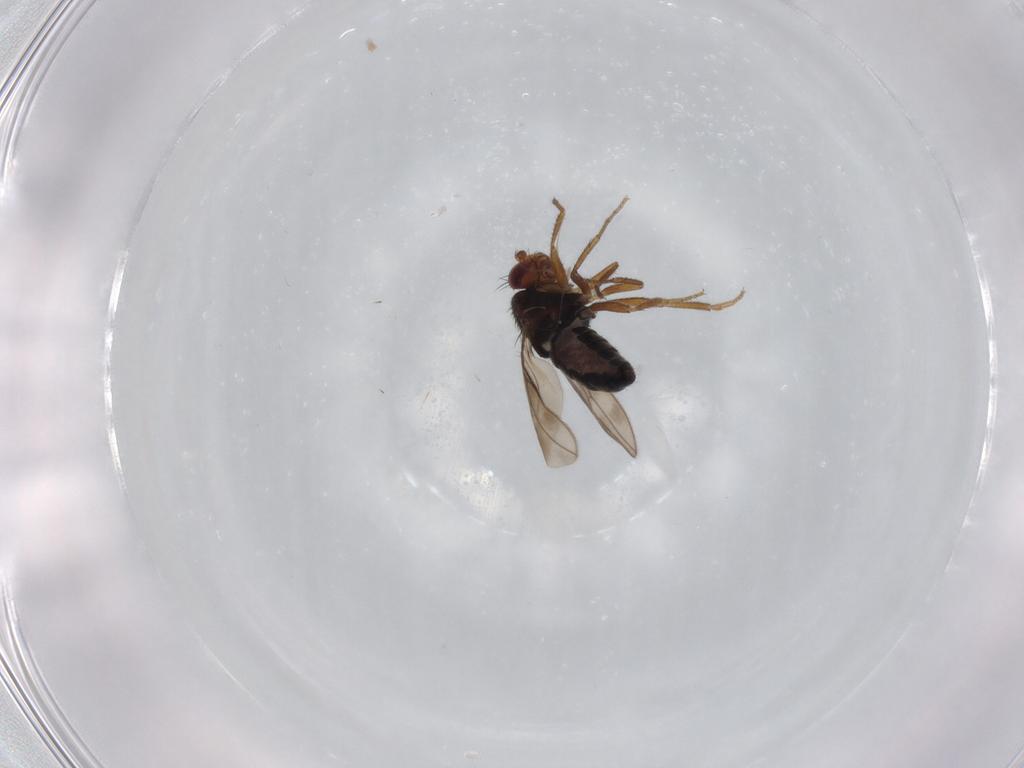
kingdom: Animalia
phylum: Arthropoda
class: Insecta
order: Diptera
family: Sphaeroceridae
